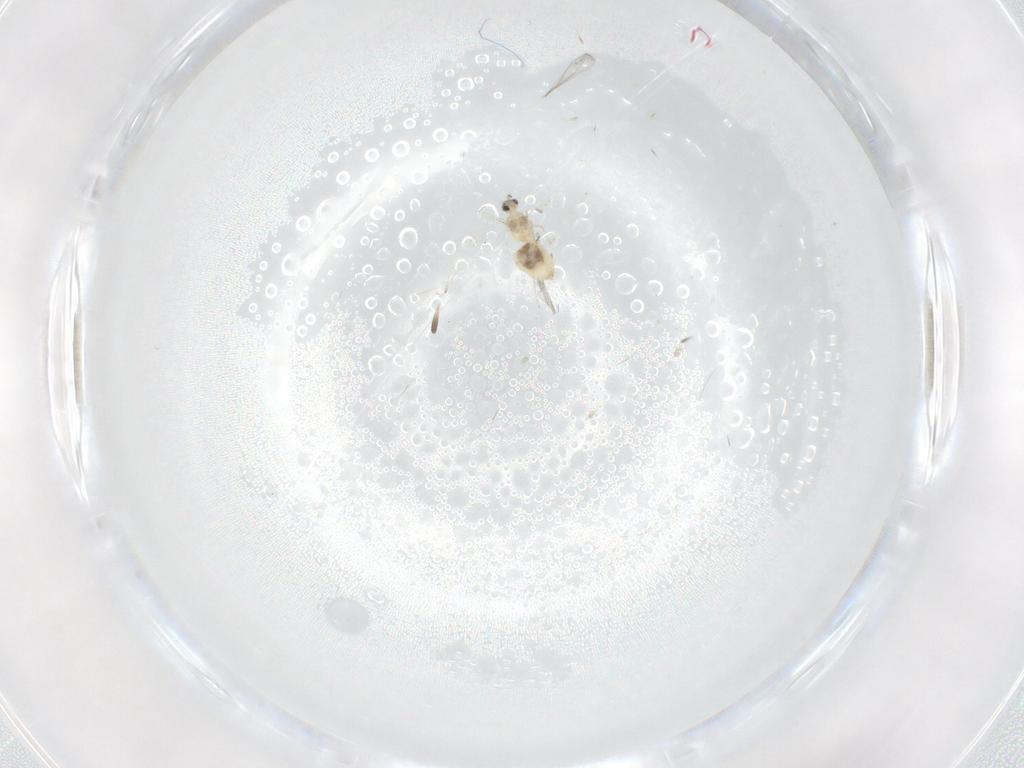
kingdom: Animalia
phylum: Arthropoda
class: Insecta
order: Diptera
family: Cecidomyiidae
